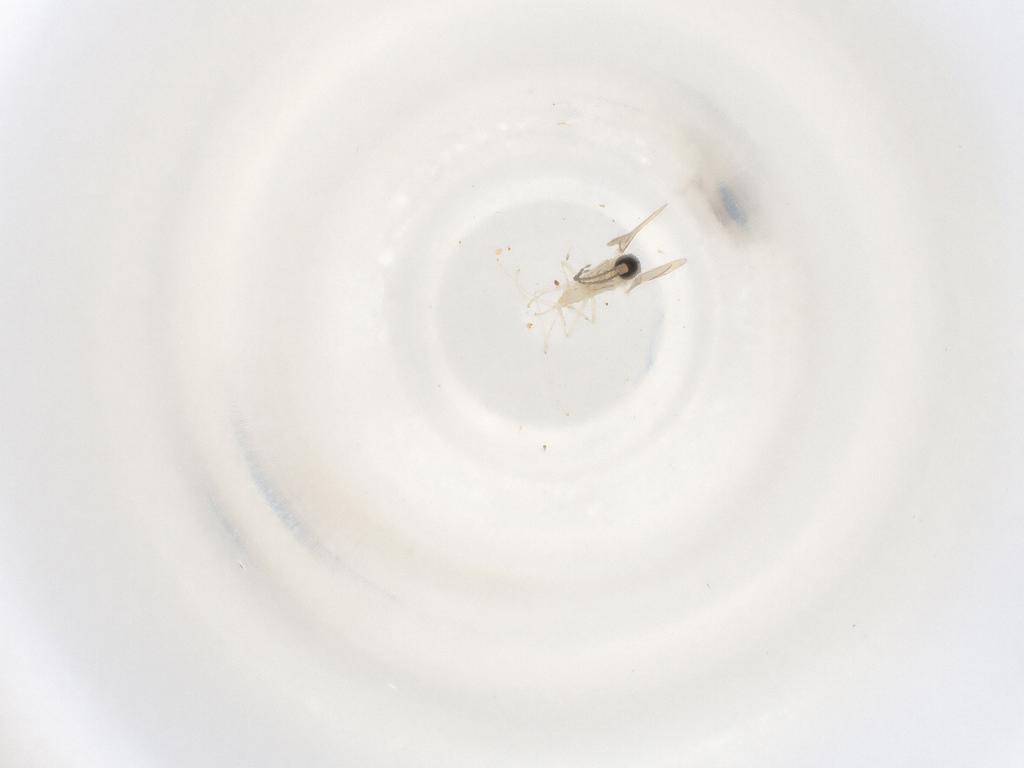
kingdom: Animalia
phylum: Arthropoda
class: Insecta
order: Diptera
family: Cecidomyiidae
